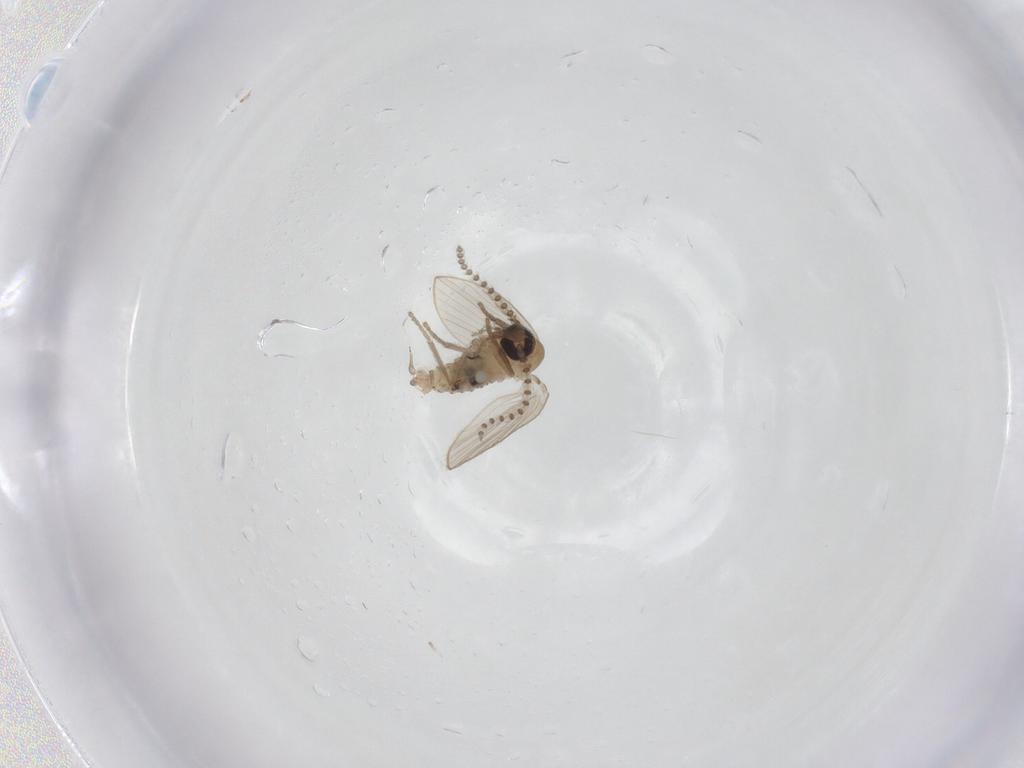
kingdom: Animalia
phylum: Arthropoda
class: Insecta
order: Diptera
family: Psychodidae
